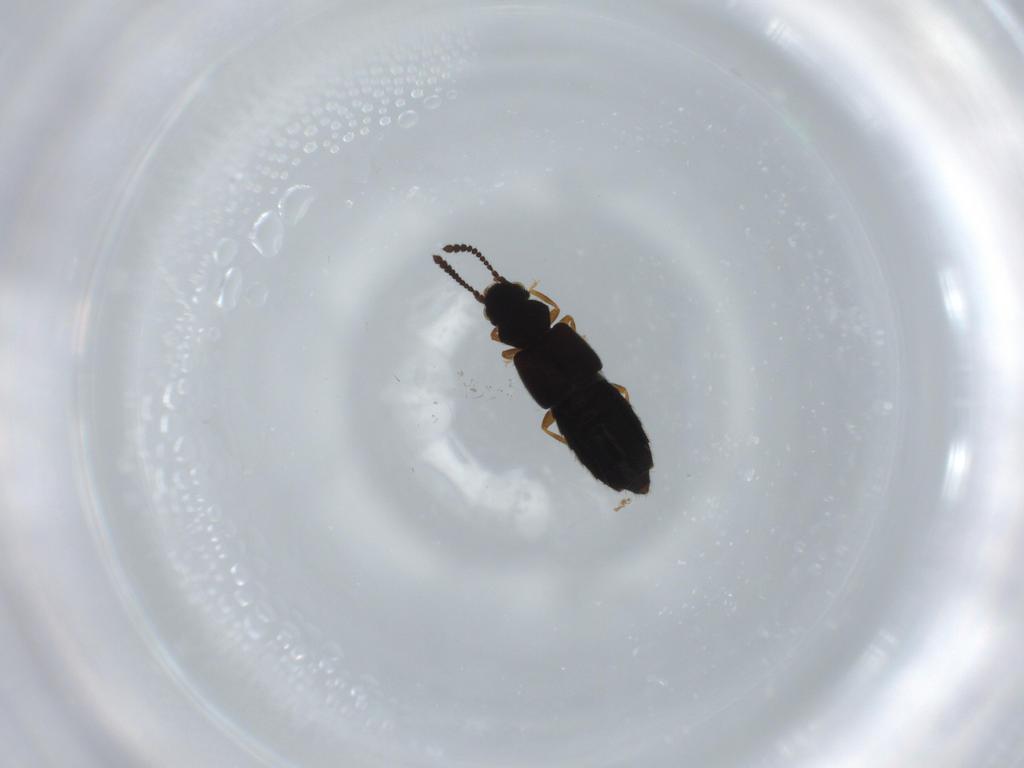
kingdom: Animalia
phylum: Arthropoda
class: Insecta
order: Coleoptera
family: Staphylinidae
